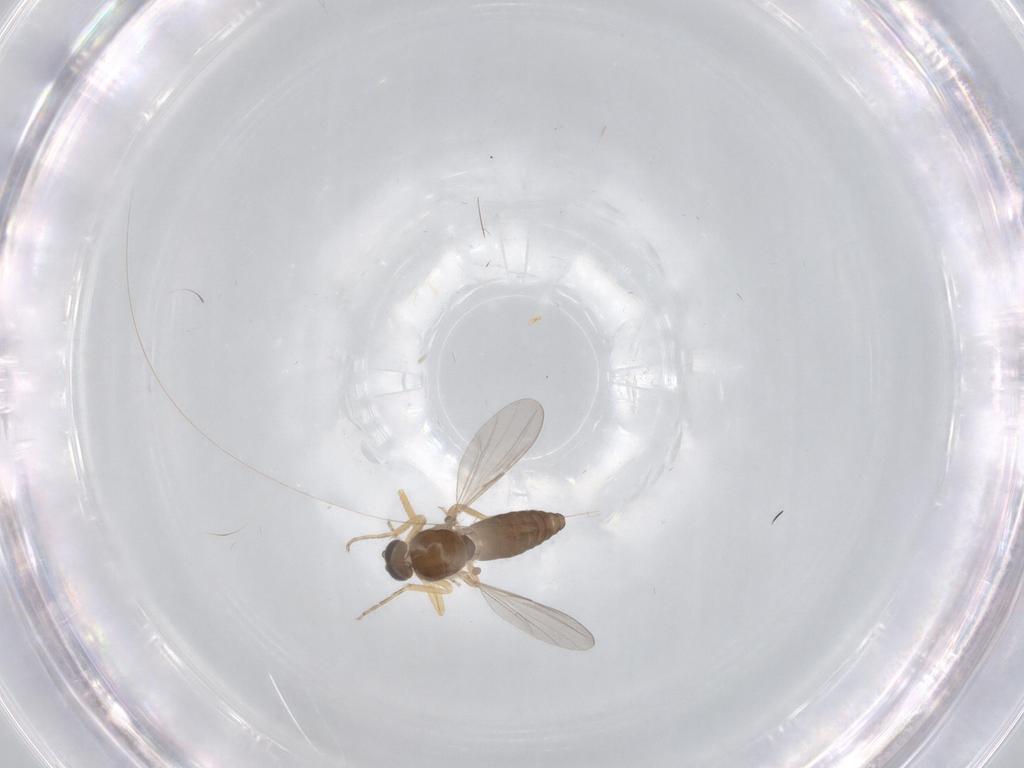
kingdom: Animalia
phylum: Arthropoda
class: Insecta
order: Diptera
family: Ceratopogonidae
